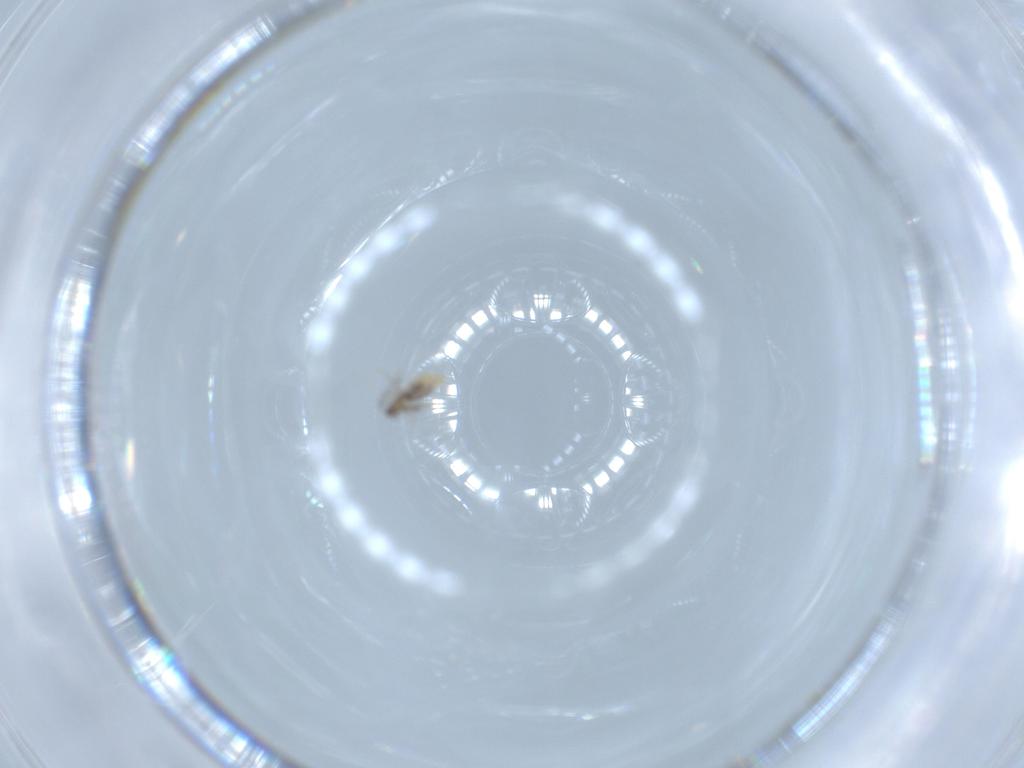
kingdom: Animalia
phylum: Arthropoda
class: Insecta
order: Diptera
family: Cecidomyiidae
